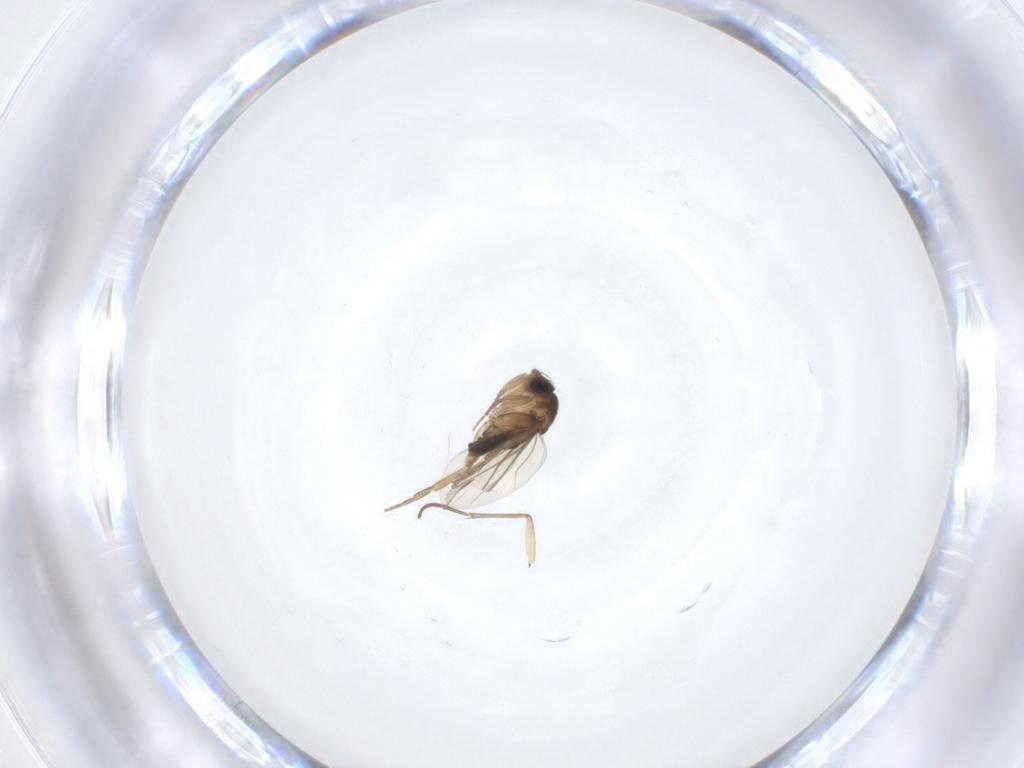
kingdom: Animalia
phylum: Arthropoda
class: Insecta
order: Diptera
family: Phoridae
